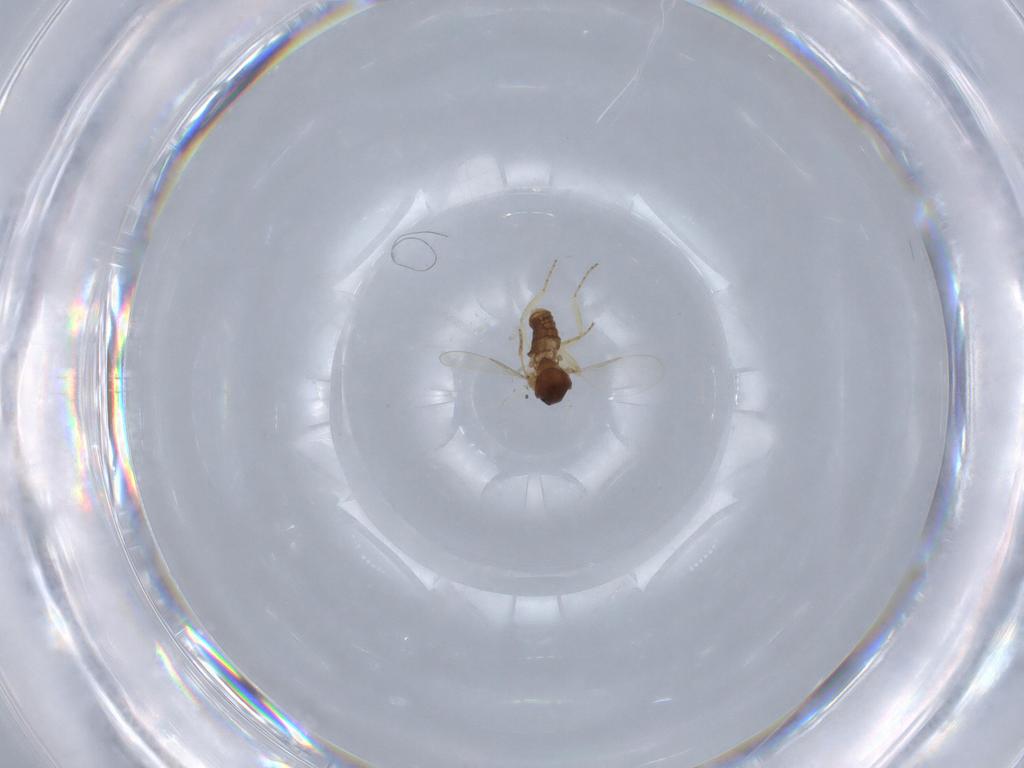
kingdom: Animalia
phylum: Arthropoda
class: Insecta
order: Diptera
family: Ceratopogonidae
